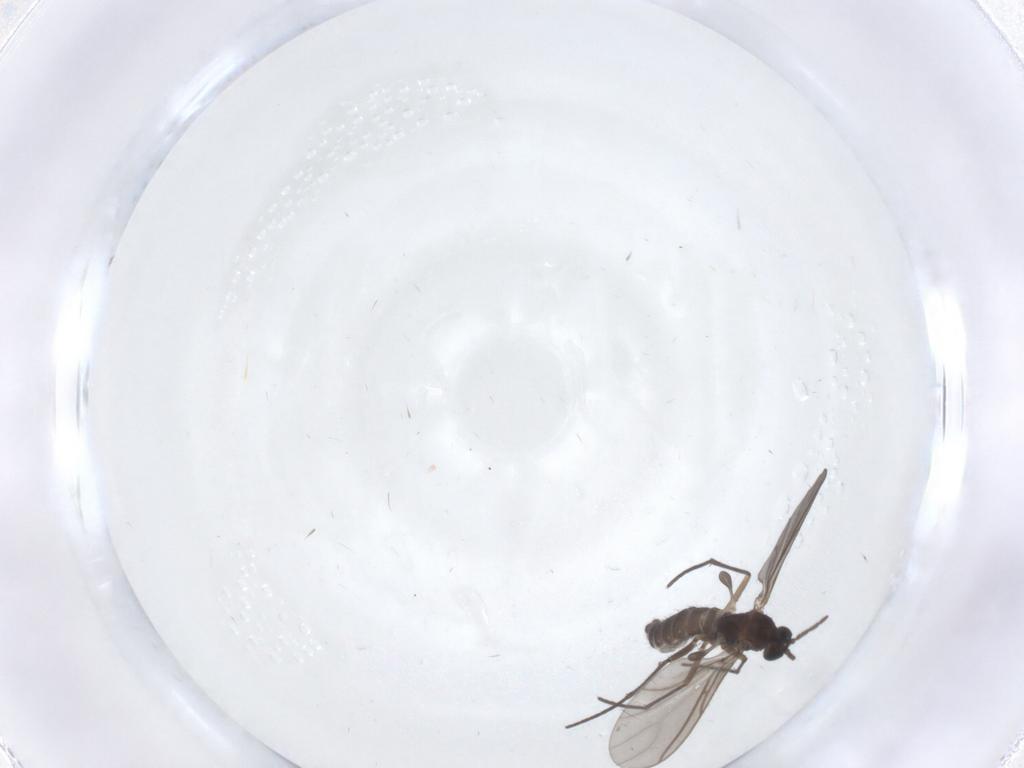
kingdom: Animalia
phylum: Arthropoda
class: Insecta
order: Diptera
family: Sciaridae
